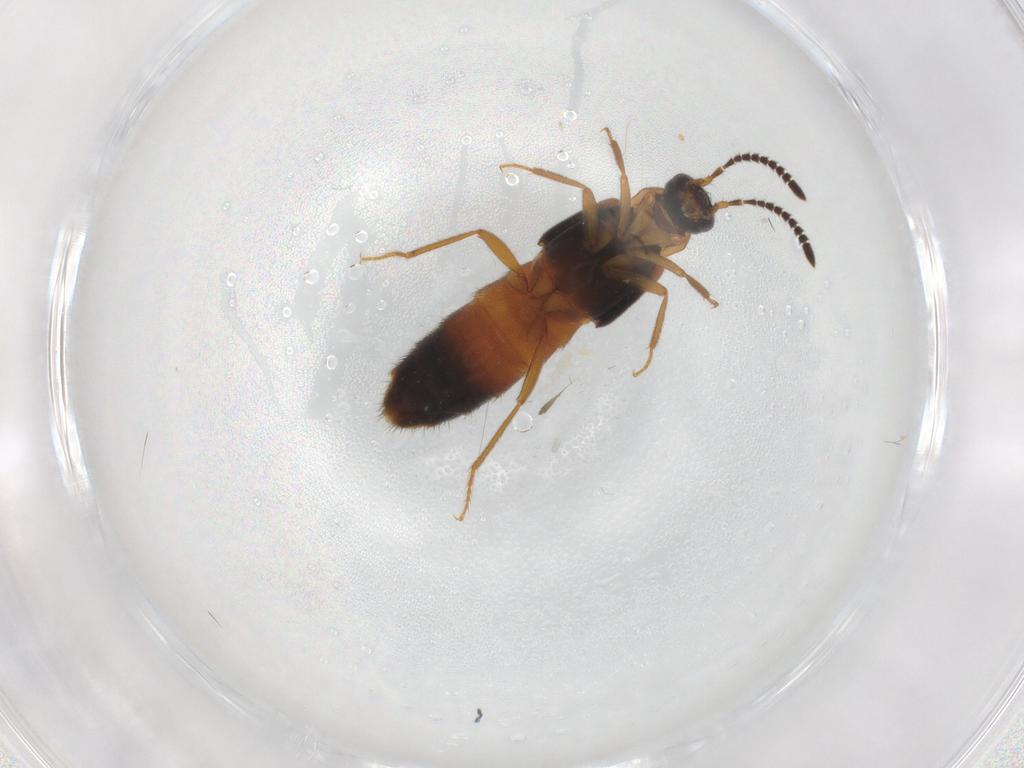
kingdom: Animalia
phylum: Arthropoda
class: Insecta
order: Coleoptera
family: Staphylinidae
